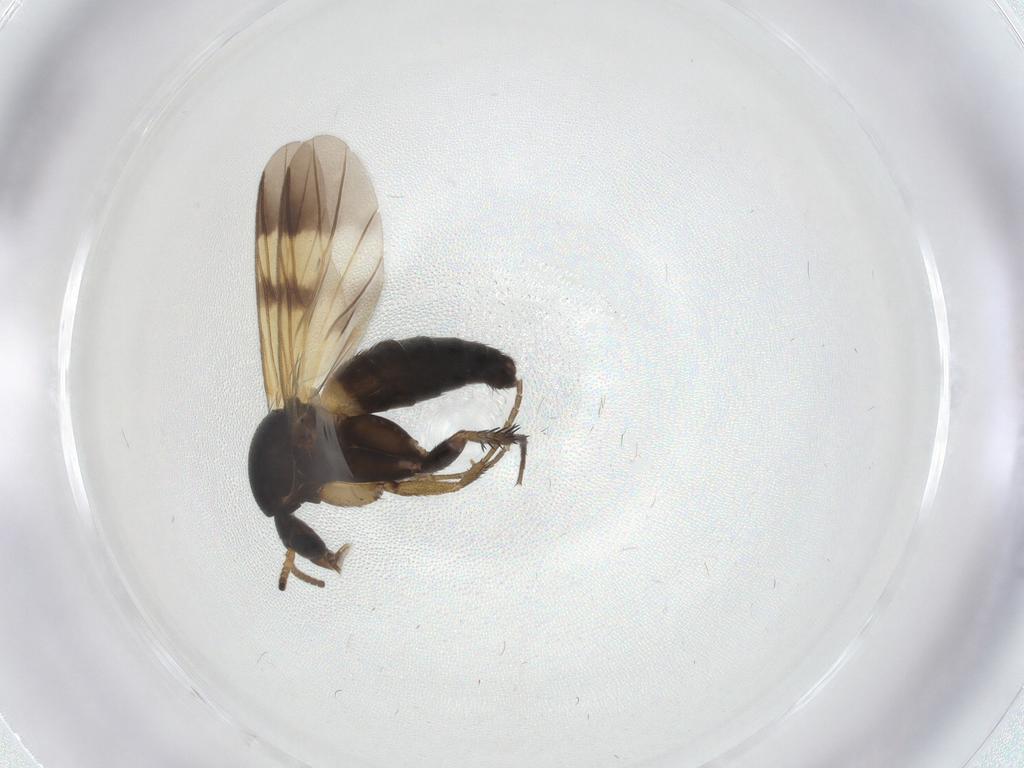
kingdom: Animalia
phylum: Arthropoda
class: Insecta
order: Diptera
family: Mycetophilidae
